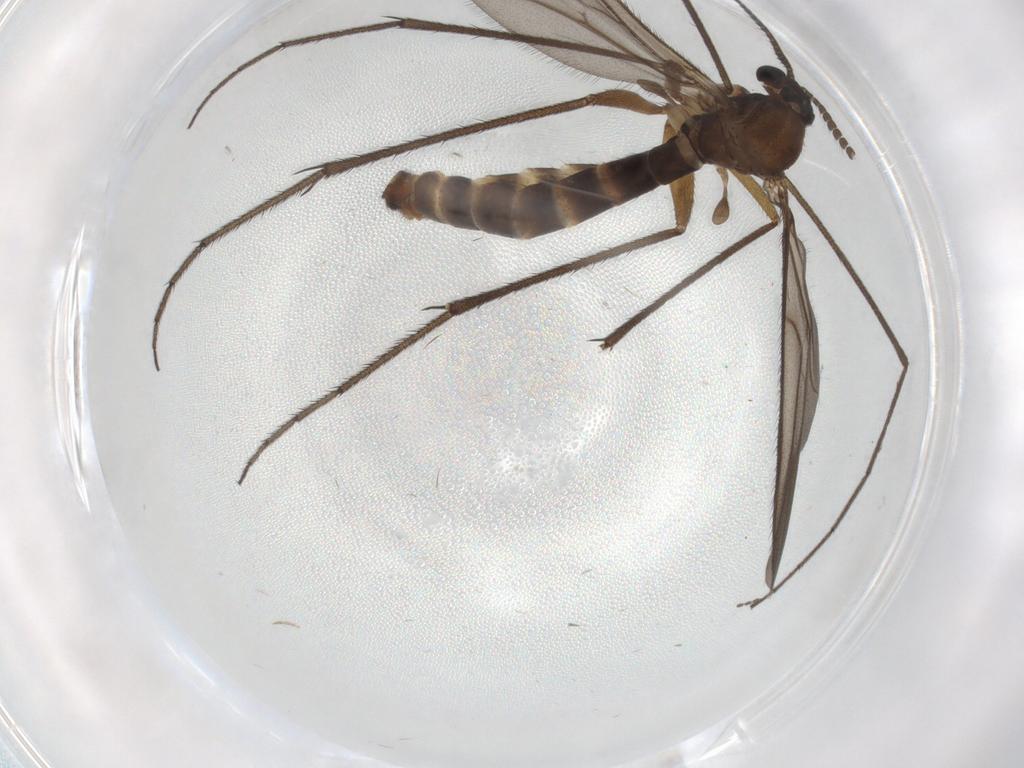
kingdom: Animalia
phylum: Arthropoda
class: Insecta
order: Diptera
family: Ditomyiidae
